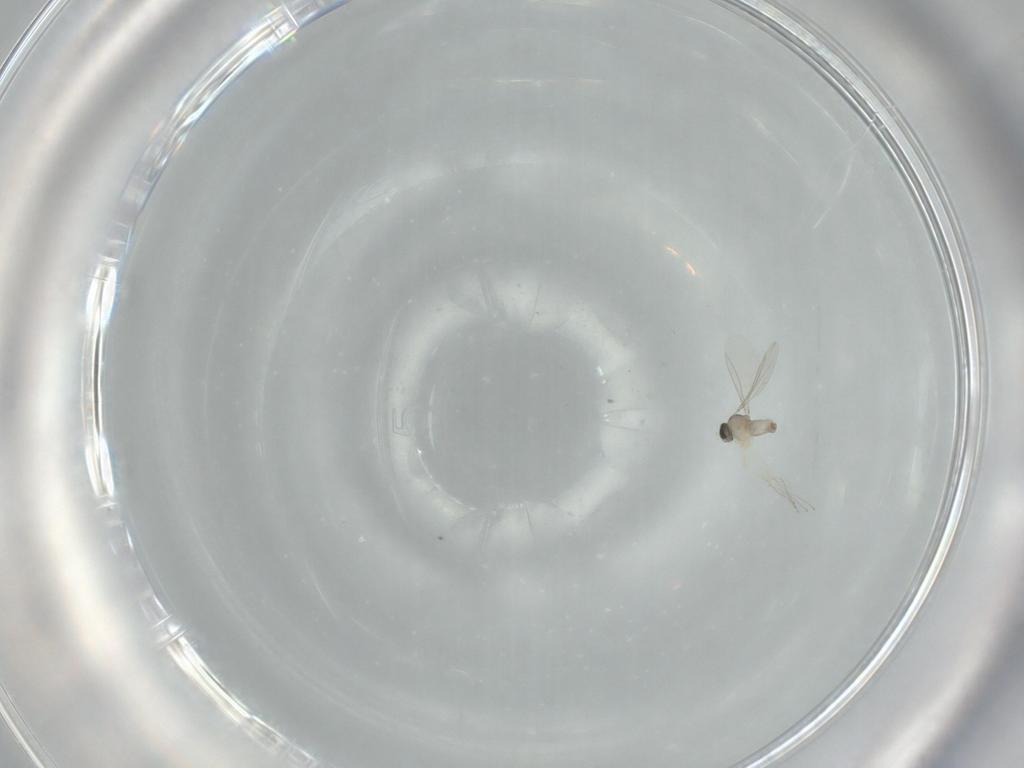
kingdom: Animalia
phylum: Arthropoda
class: Insecta
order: Diptera
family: Cecidomyiidae
